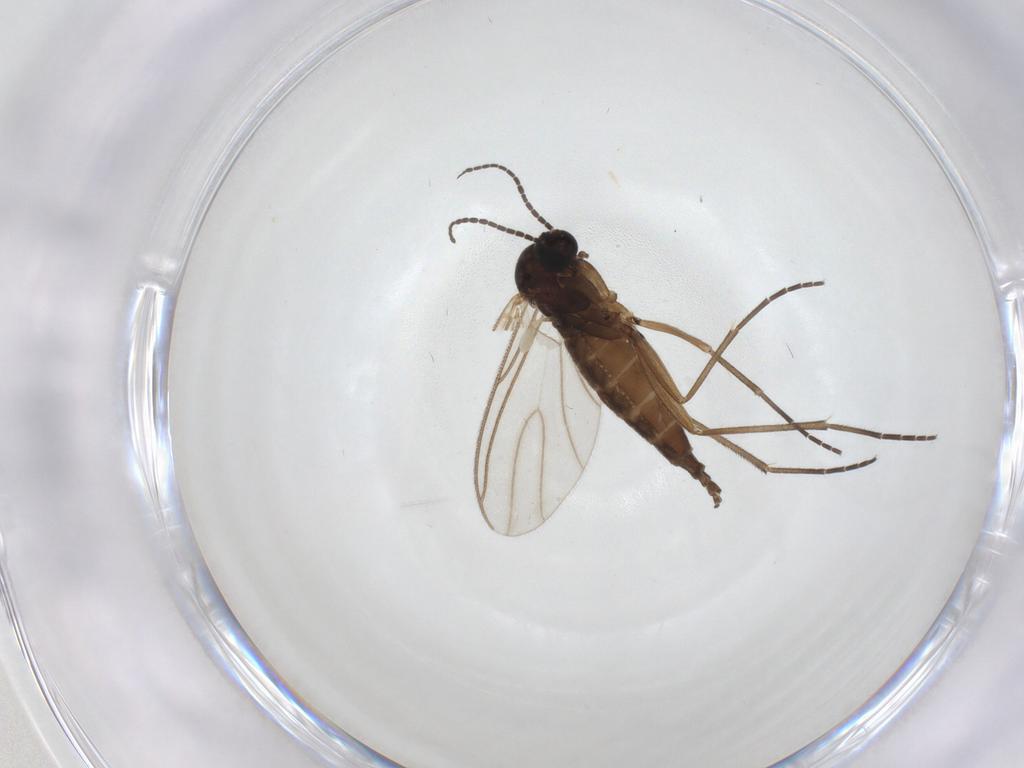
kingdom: Animalia
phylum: Arthropoda
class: Insecta
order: Diptera
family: Sciaridae
